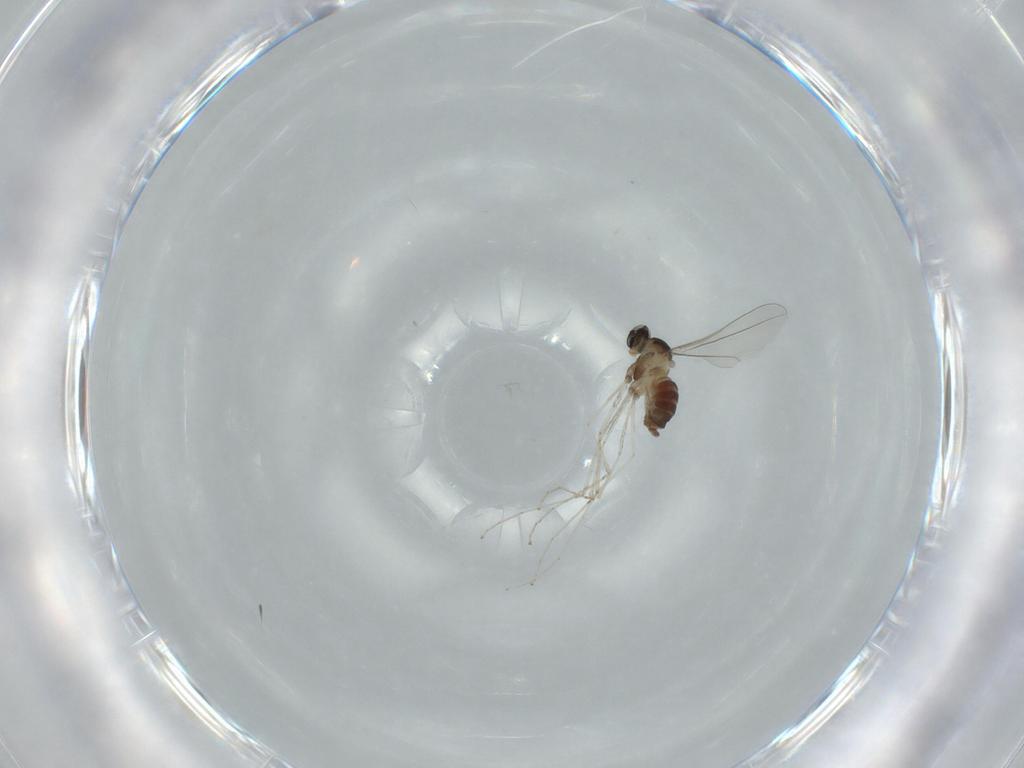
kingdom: Animalia
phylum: Arthropoda
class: Insecta
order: Diptera
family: Cecidomyiidae
